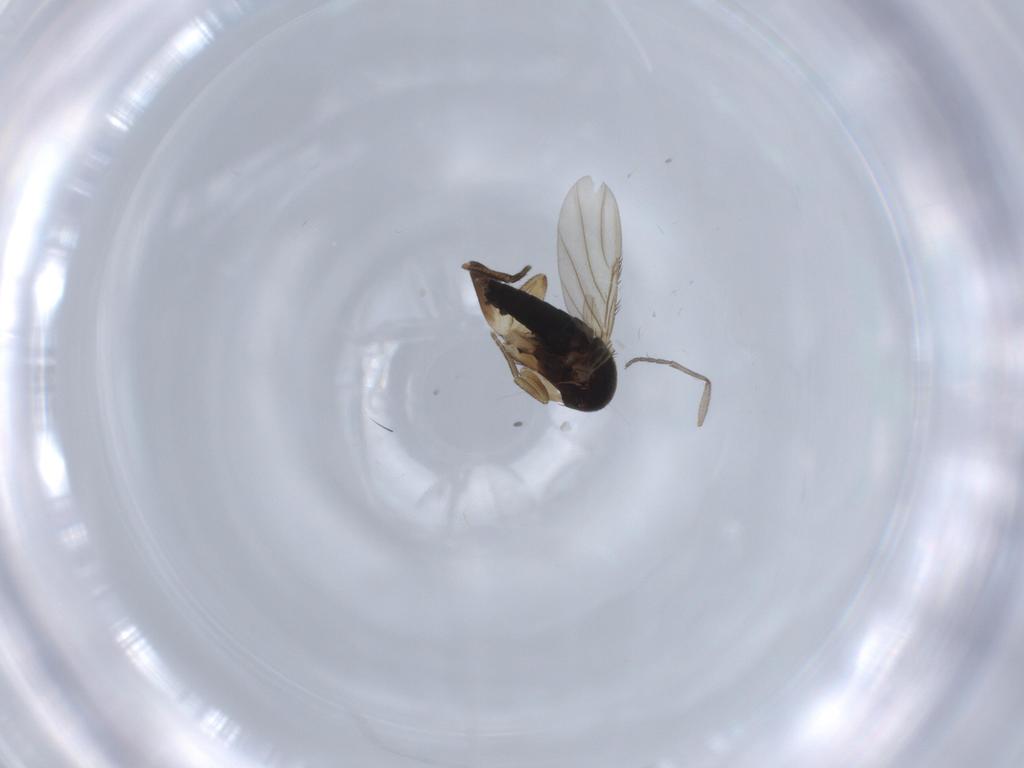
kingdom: Animalia
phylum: Arthropoda
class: Insecta
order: Diptera
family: Phoridae
